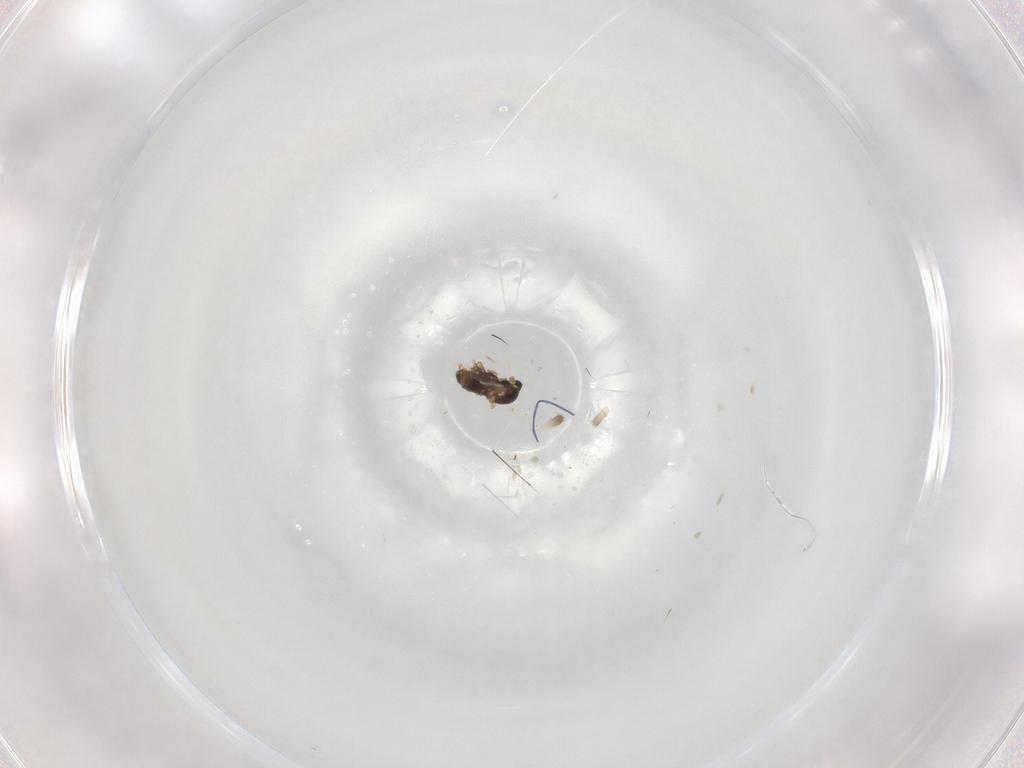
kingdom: Animalia
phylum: Arthropoda
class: Insecta
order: Diptera
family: Cecidomyiidae
